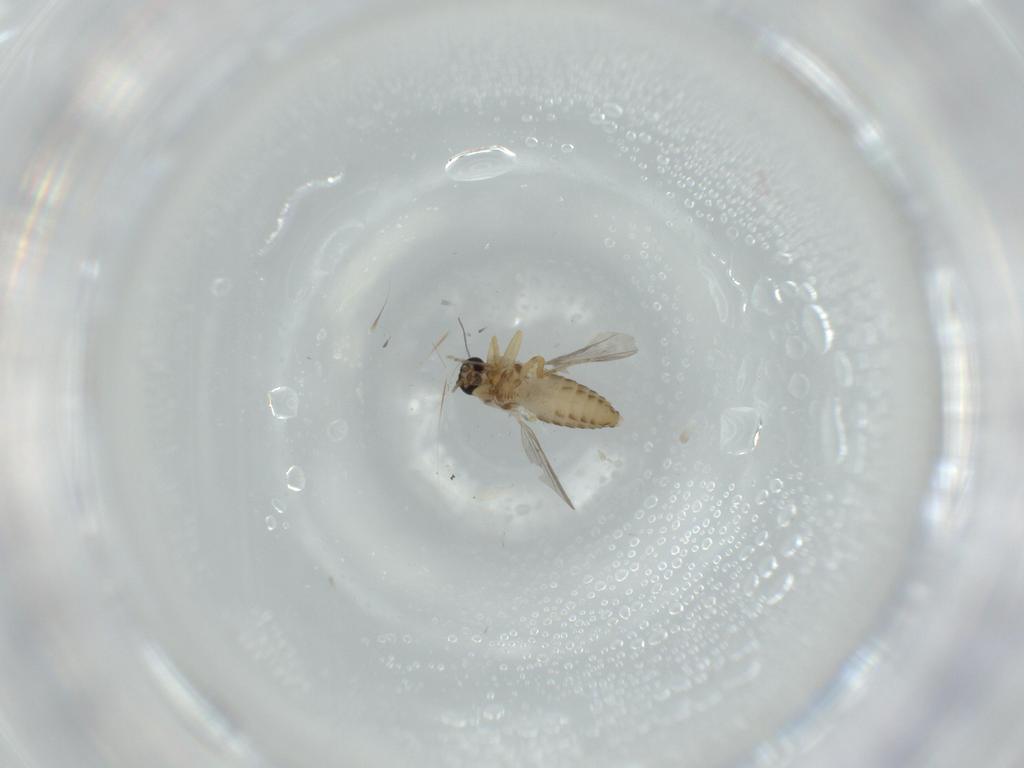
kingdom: Animalia
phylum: Arthropoda
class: Insecta
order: Diptera
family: Ceratopogonidae
